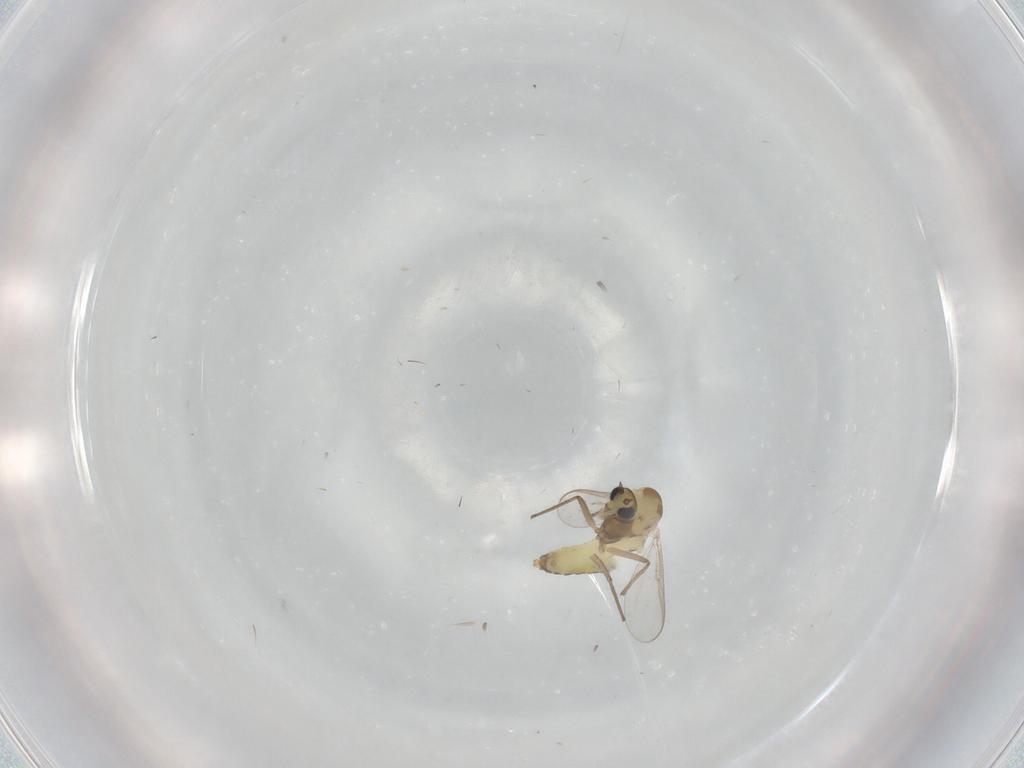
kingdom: Animalia
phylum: Arthropoda
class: Insecta
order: Diptera
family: Chironomidae
